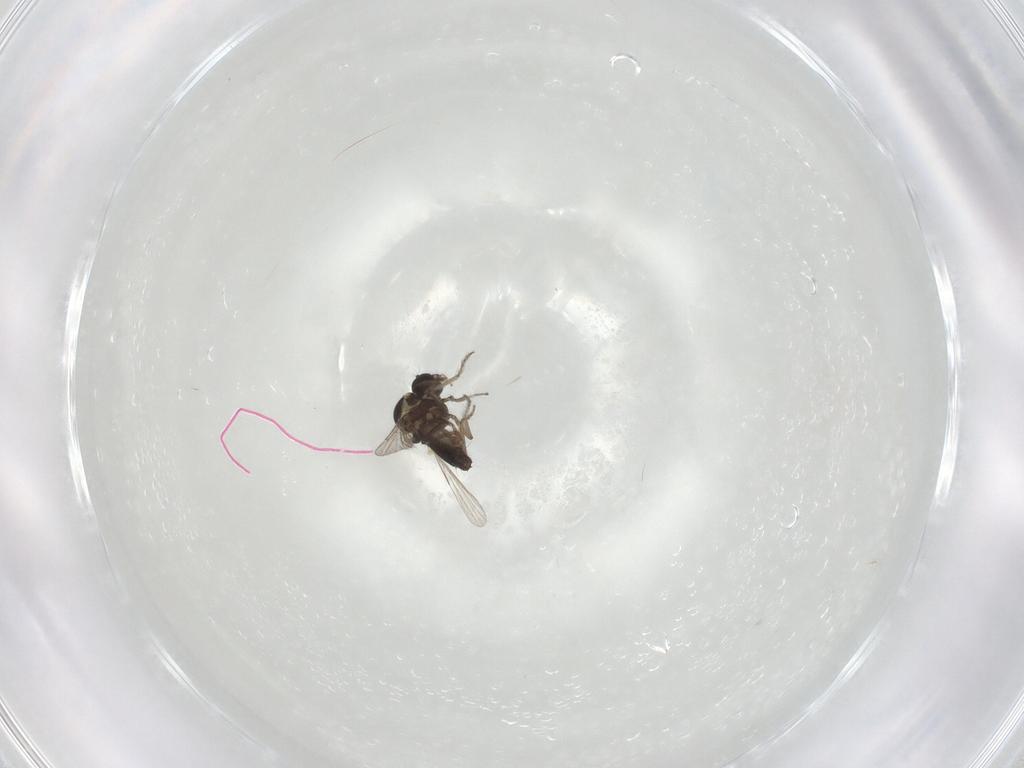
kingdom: Animalia
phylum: Arthropoda
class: Insecta
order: Diptera
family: Ceratopogonidae
